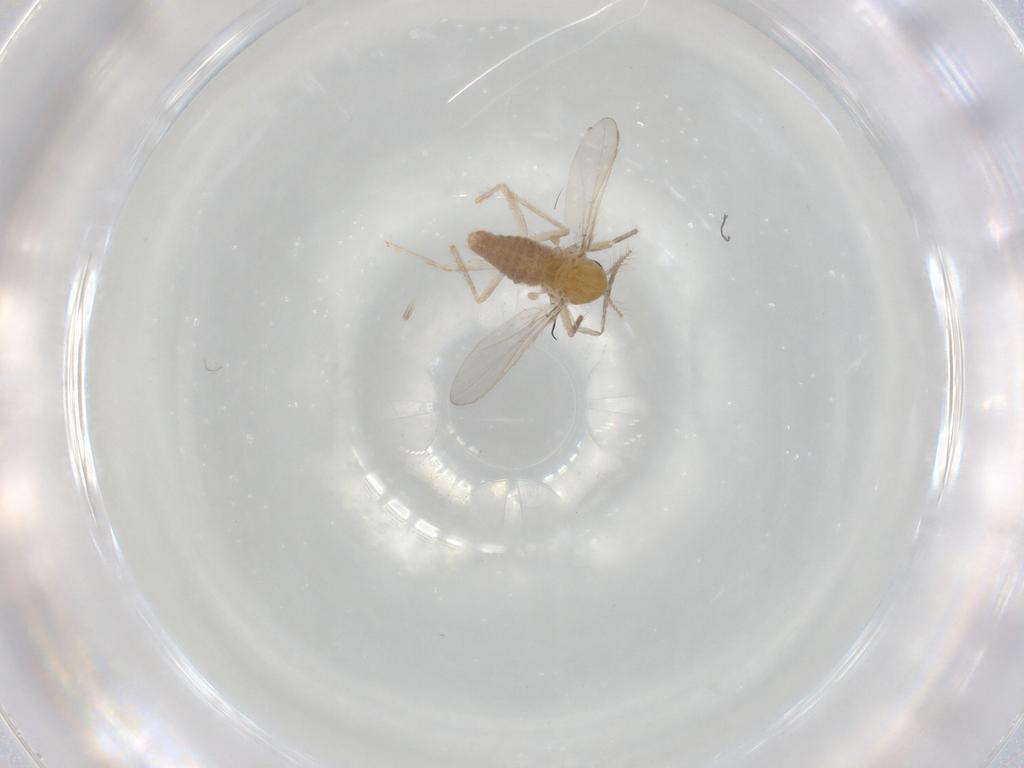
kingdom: Animalia
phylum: Arthropoda
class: Insecta
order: Diptera
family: Chironomidae
